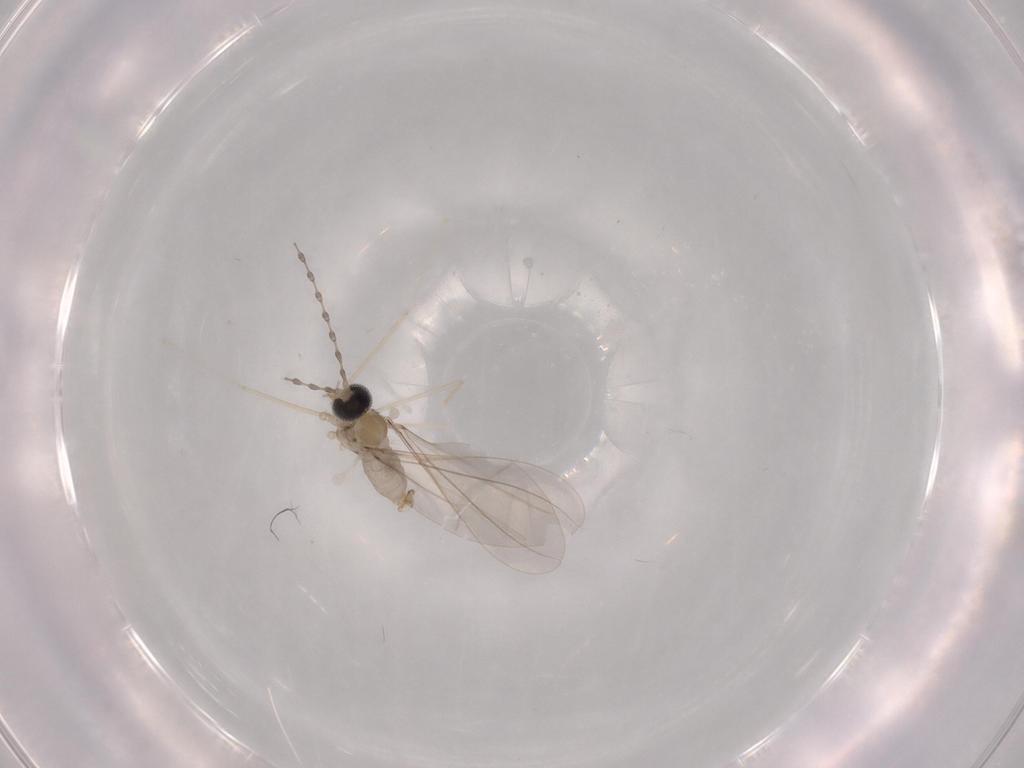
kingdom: Animalia
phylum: Arthropoda
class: Insecta
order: Diptera
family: Cecidomyiidae
